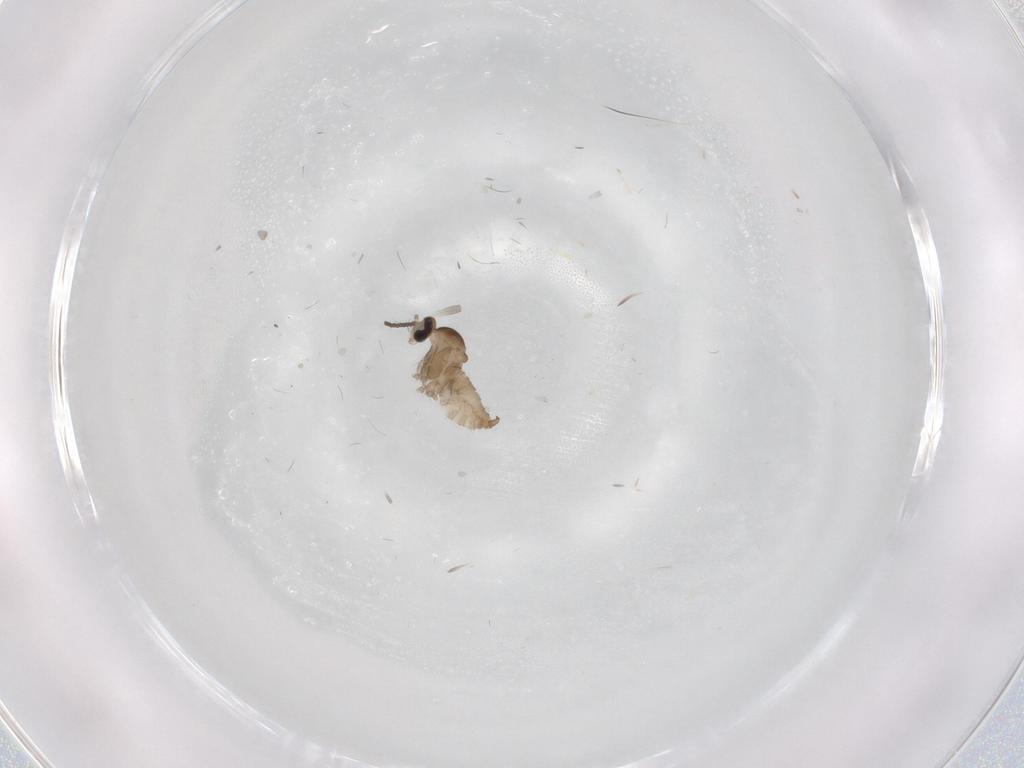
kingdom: Animalia
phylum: Arthropoda
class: Insecta
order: Diptera
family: Cecidomyiidae
